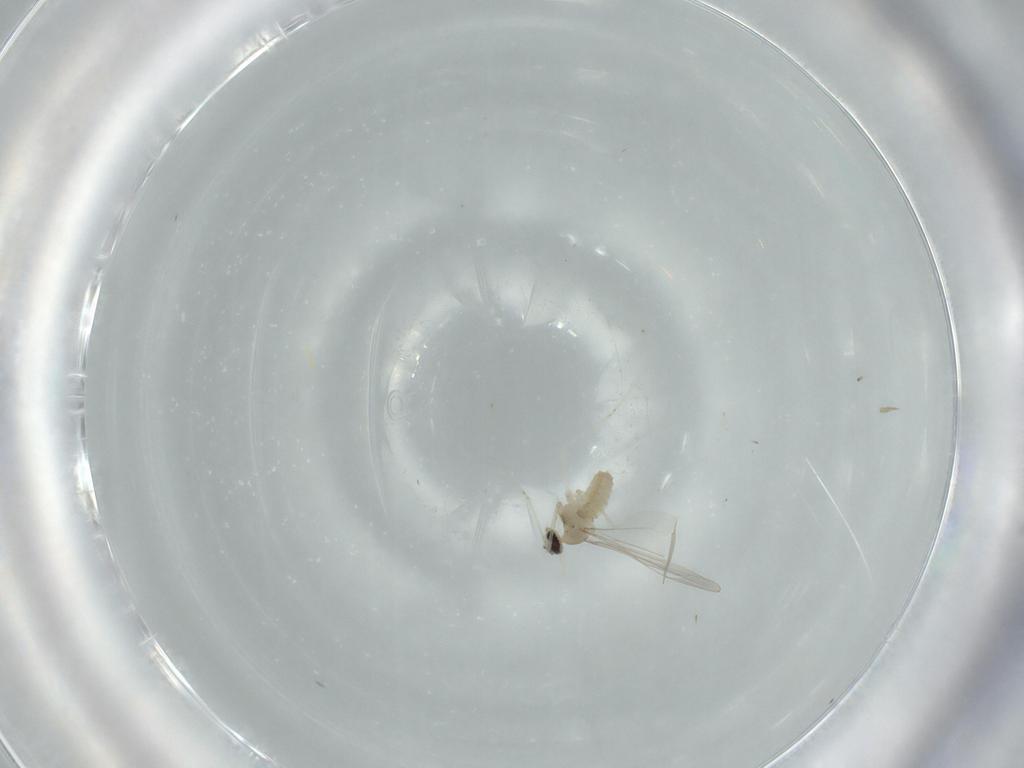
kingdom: Animalia
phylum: Arthropoda
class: Insecta
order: Diptera
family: Cecidomyiidae
